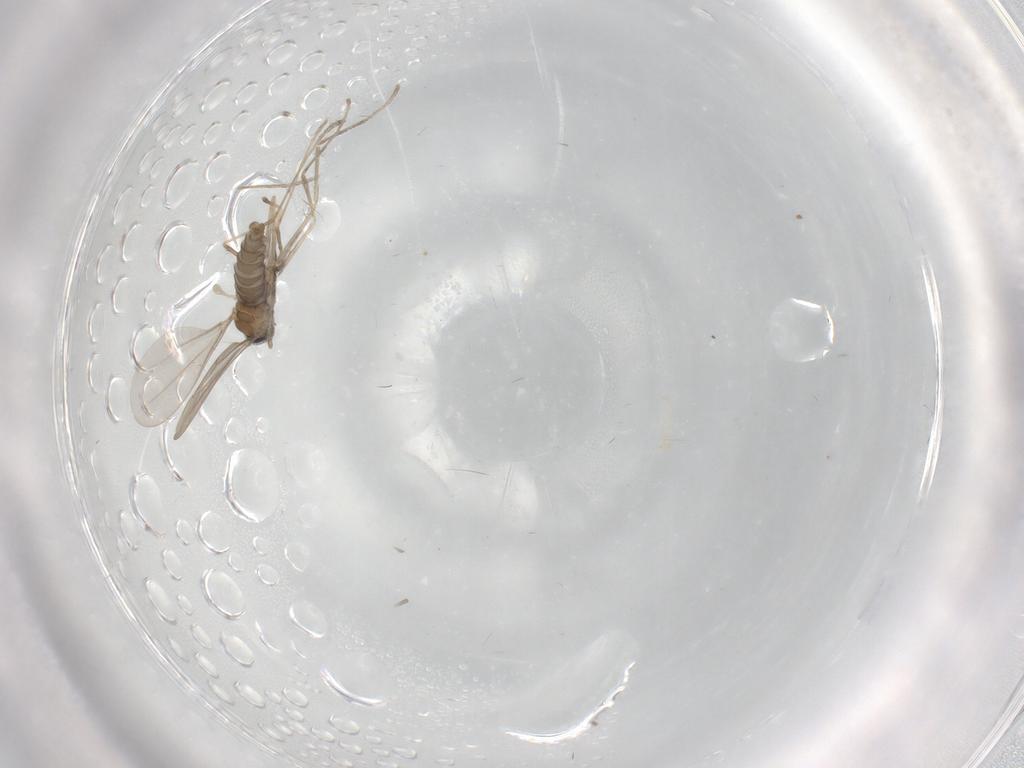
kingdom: Animalia
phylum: Arthropoda
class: Insecta
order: Diptera
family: Cecidomyiidae
